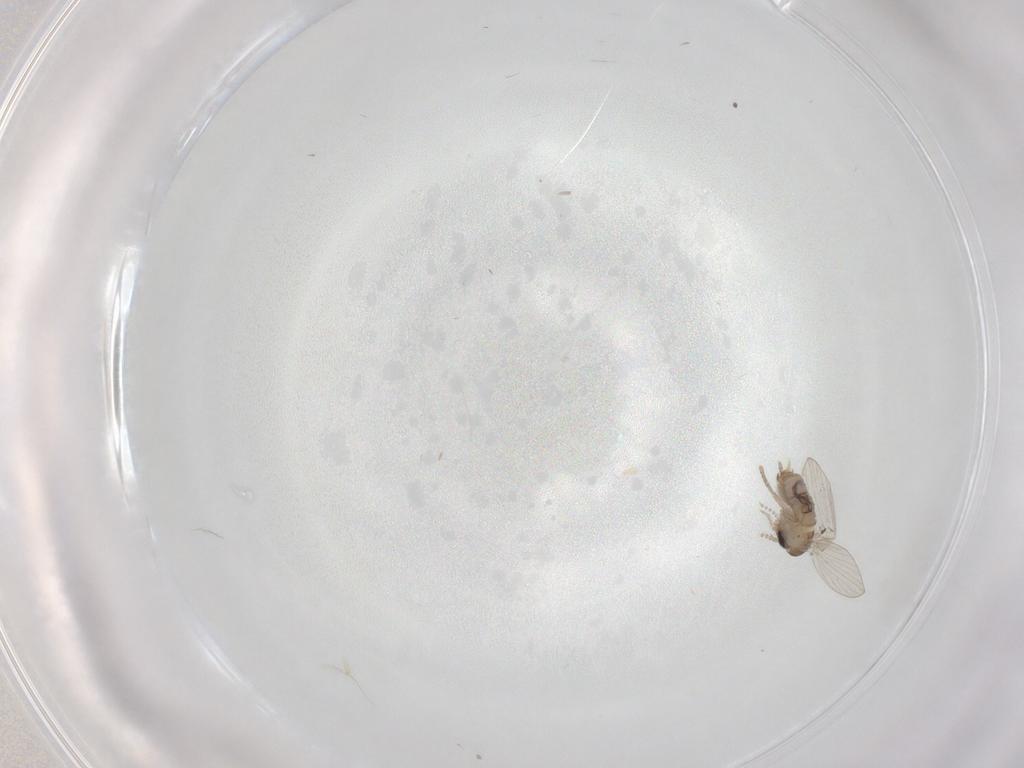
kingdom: Animalia
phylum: Arthropoda
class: Insecta
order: Diptera
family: Psychodidae
